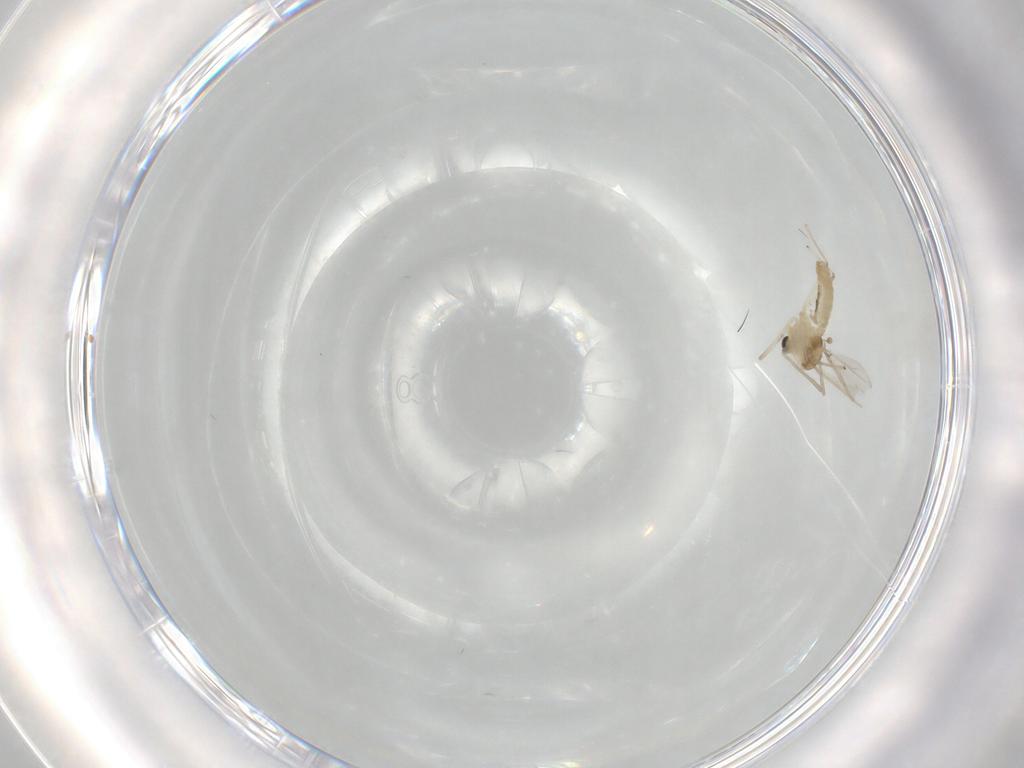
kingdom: Animalia
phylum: Arthropoda
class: Insecta
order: Diptera
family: Chironomidae
